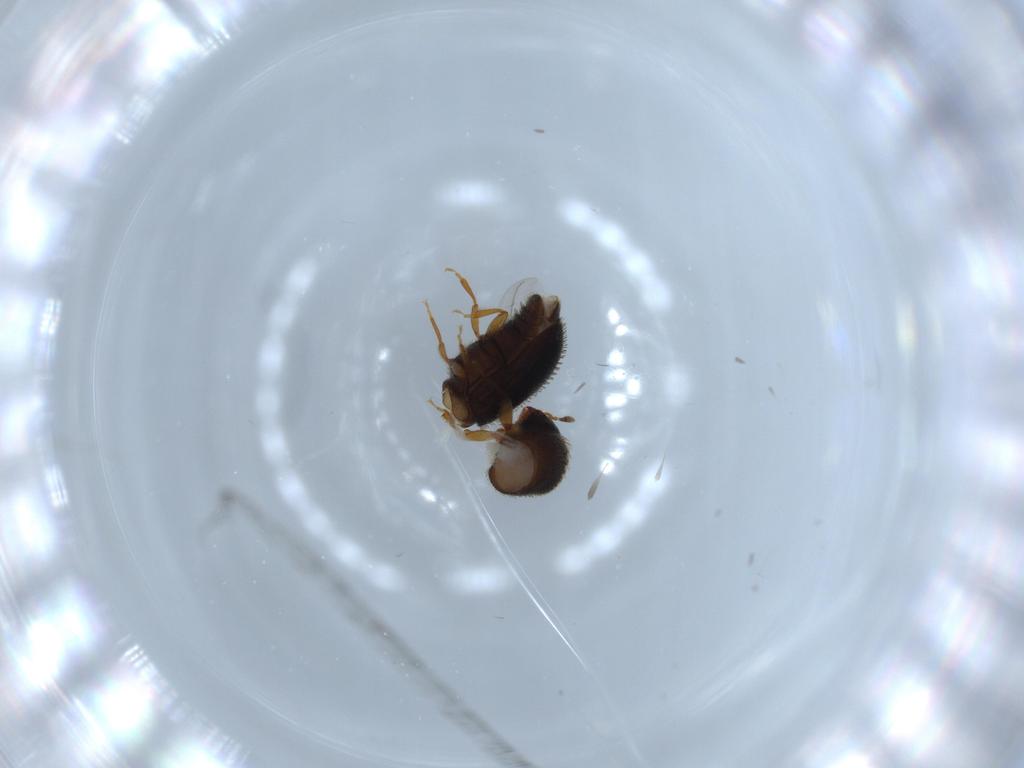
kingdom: Animalia
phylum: Arthropoda
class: Insecta
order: Coleoptera
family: Curculionidae
